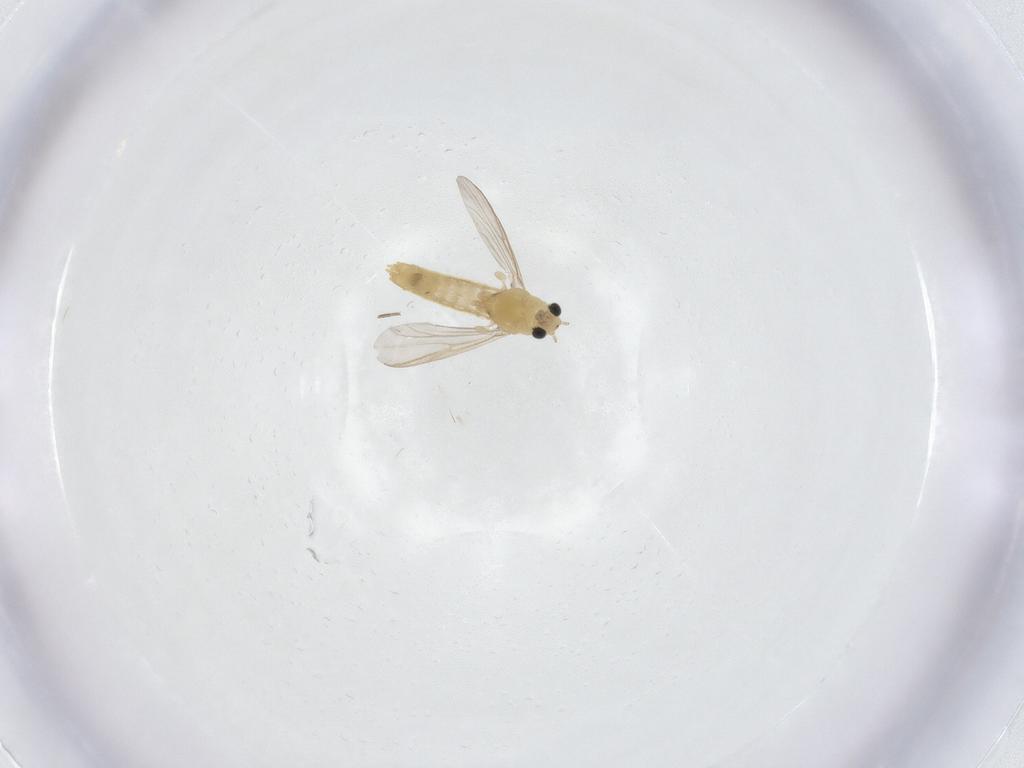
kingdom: Animalia
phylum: Arthropoda
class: Insecta
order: Diptera
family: Chironomidae
